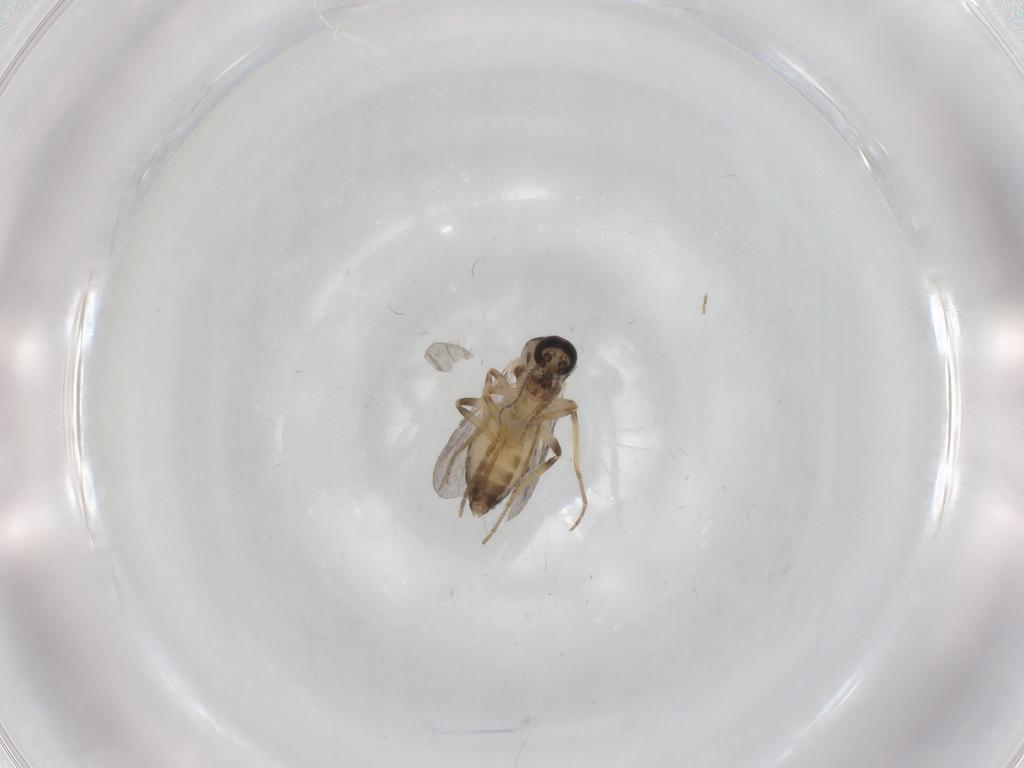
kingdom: Animalia
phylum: Arthropoda
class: Insecta
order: Diptera
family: Ceratopogonidae
